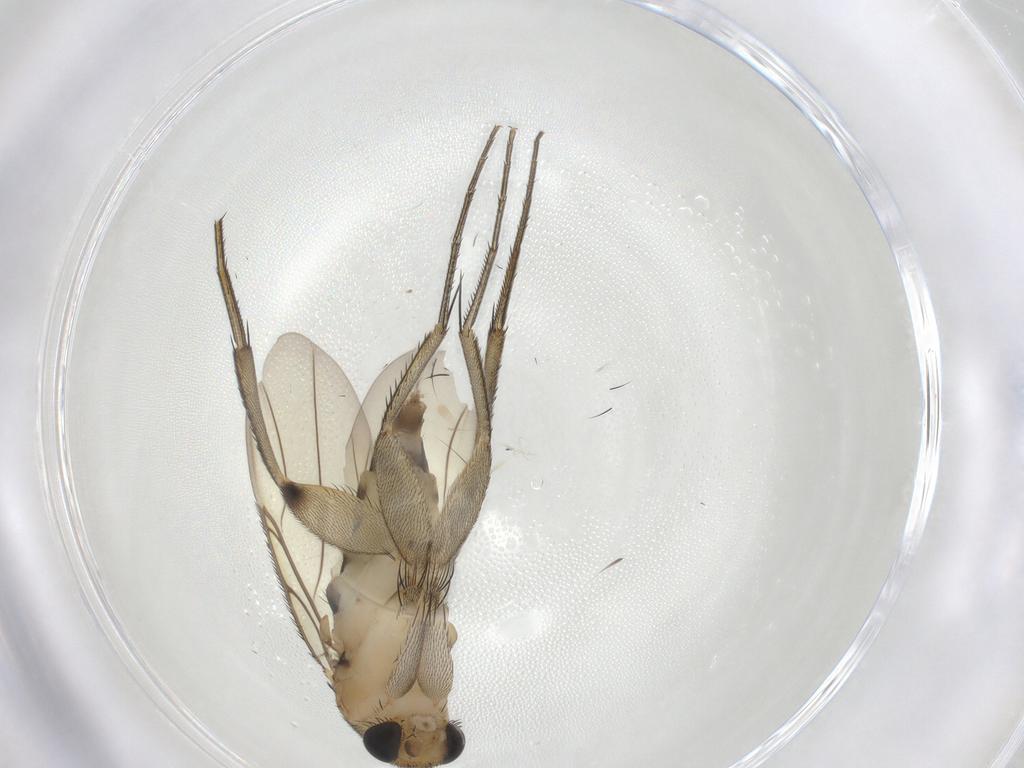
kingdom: Animalia
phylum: Arthropoda
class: Insecta
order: Diptera
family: Phoridae
